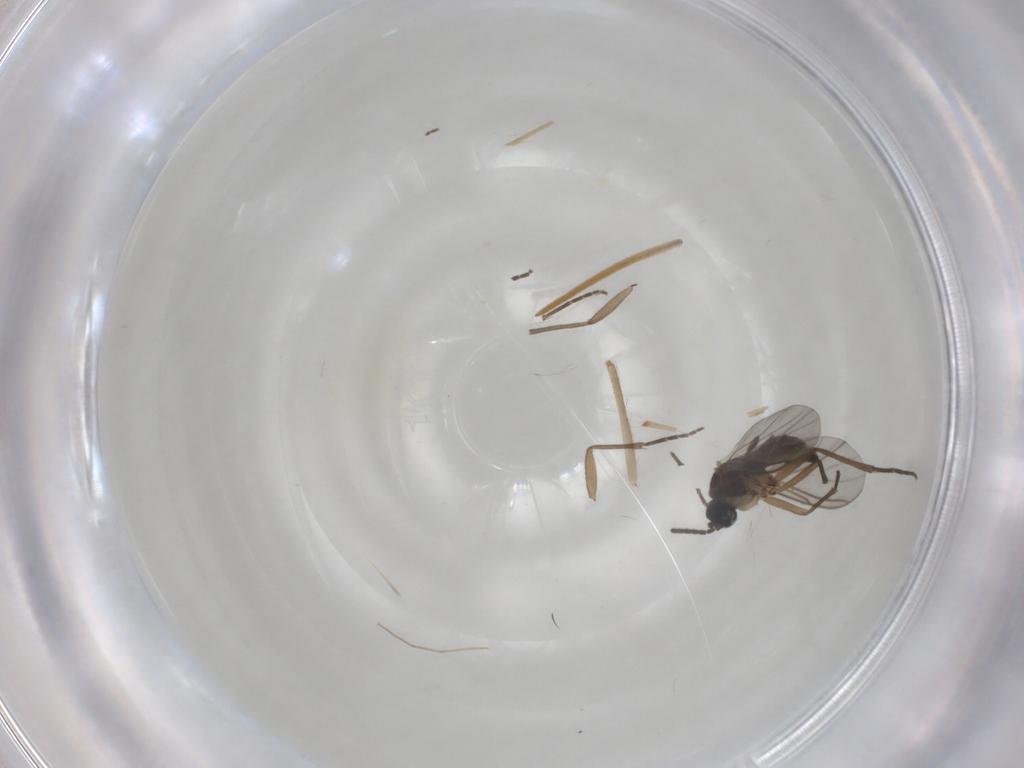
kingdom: Animalia
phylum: Arthropoda
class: Insecta
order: Diptera
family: Chironomidae
